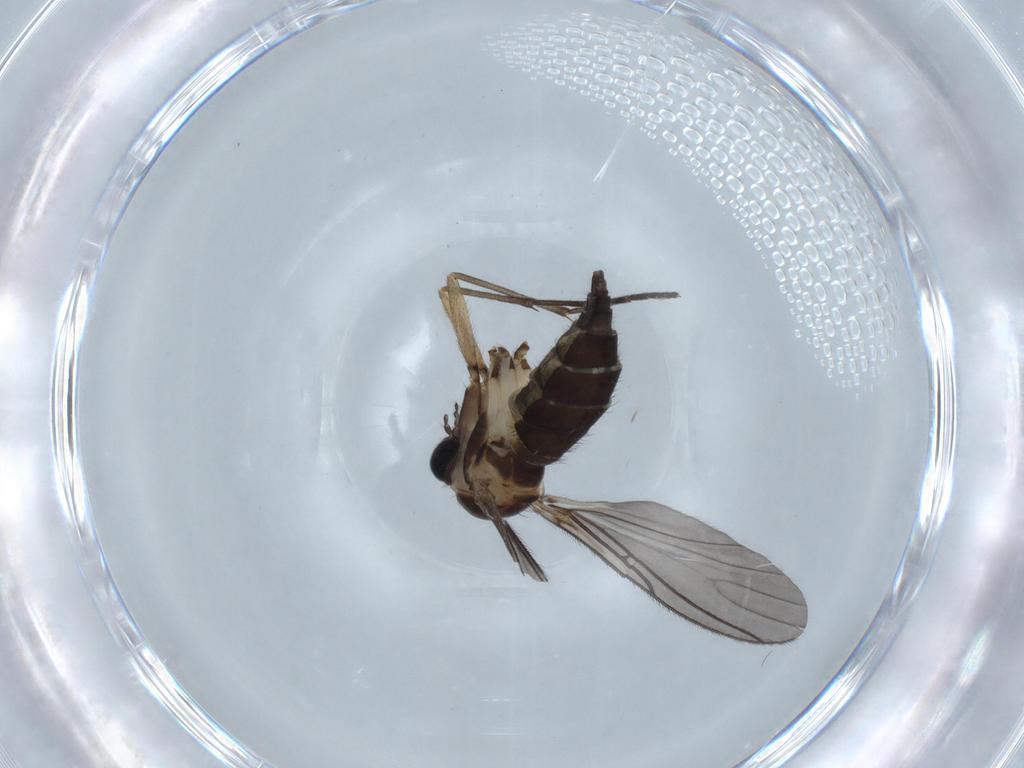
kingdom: Animalia
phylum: Arthropoda
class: Insecta
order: Diptera
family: Sciaridae
